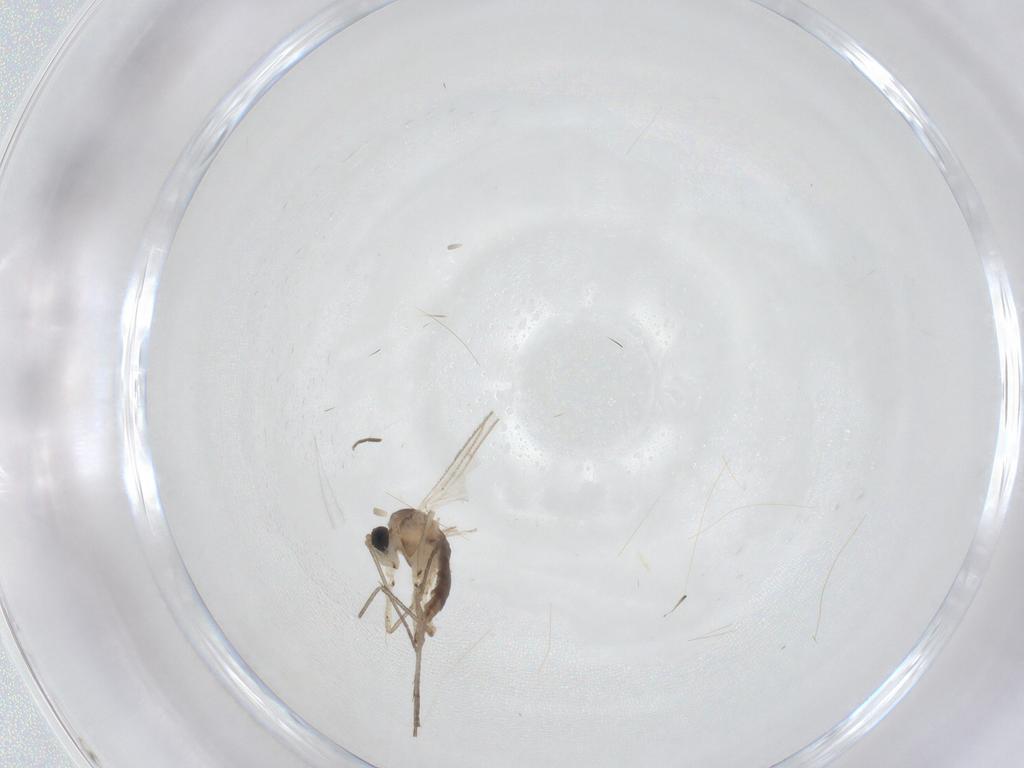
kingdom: Animalia
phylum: Arthropoda
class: Insecta
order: Diptera
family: Sciaridae
